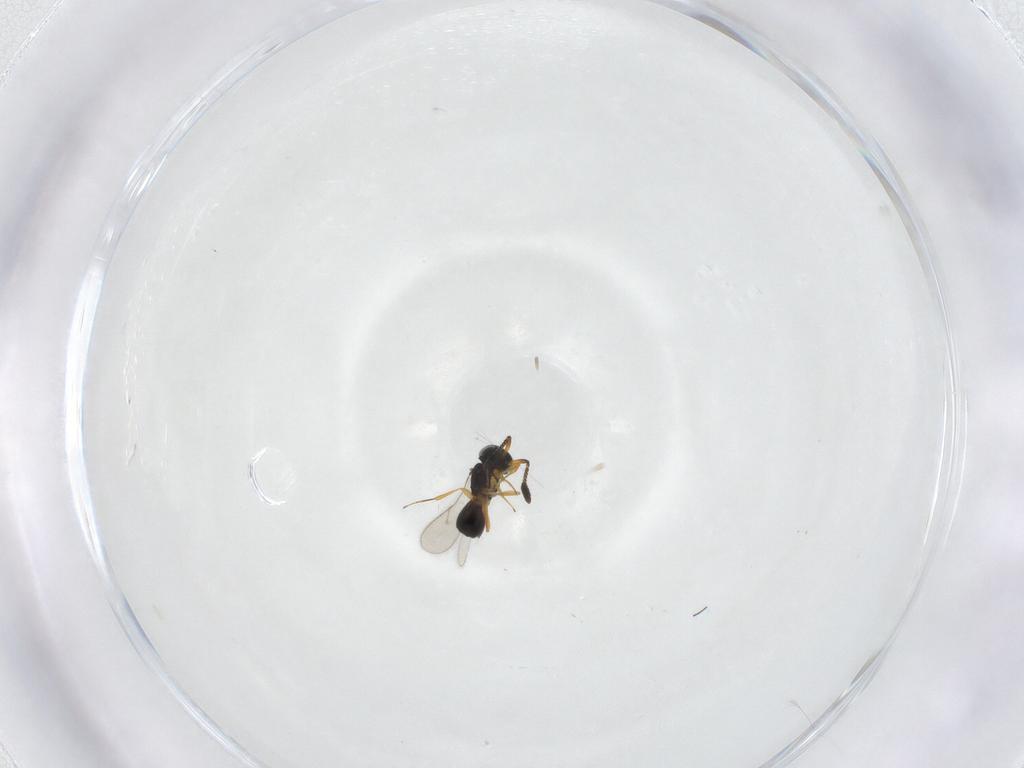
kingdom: Animalia
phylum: Arthropoda
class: Insecta
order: Hymenoptera
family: Scelionidae
